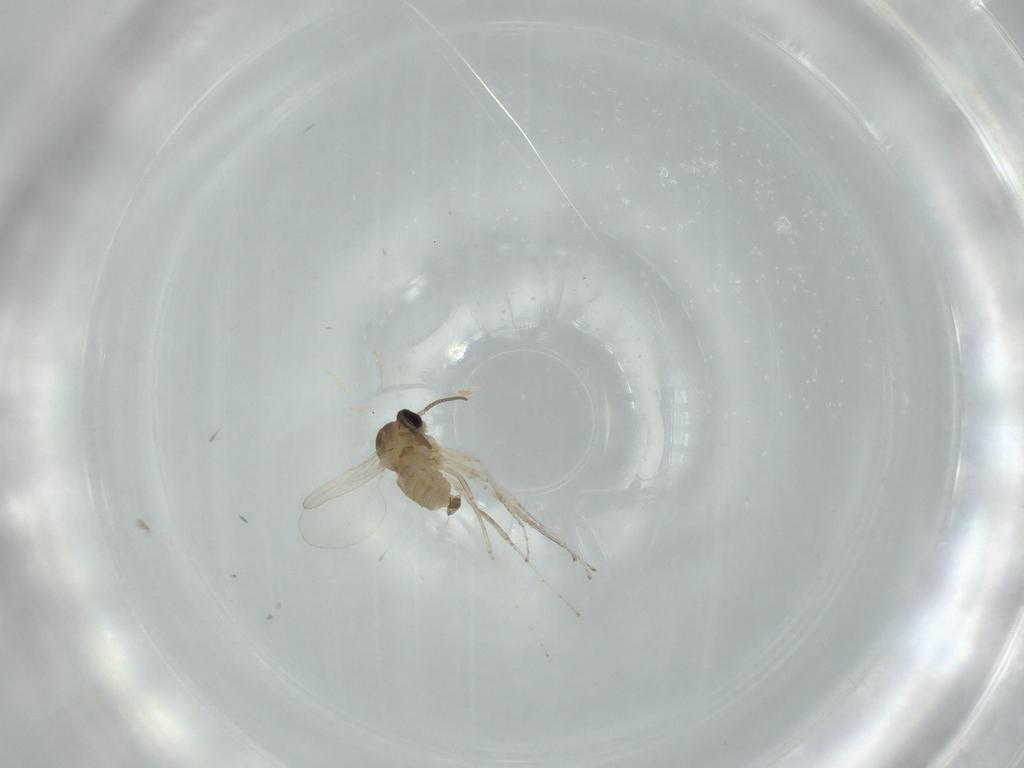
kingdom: Animalia
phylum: Arthropoda
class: Insecta
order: Diptera
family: Cecidomyiidae
